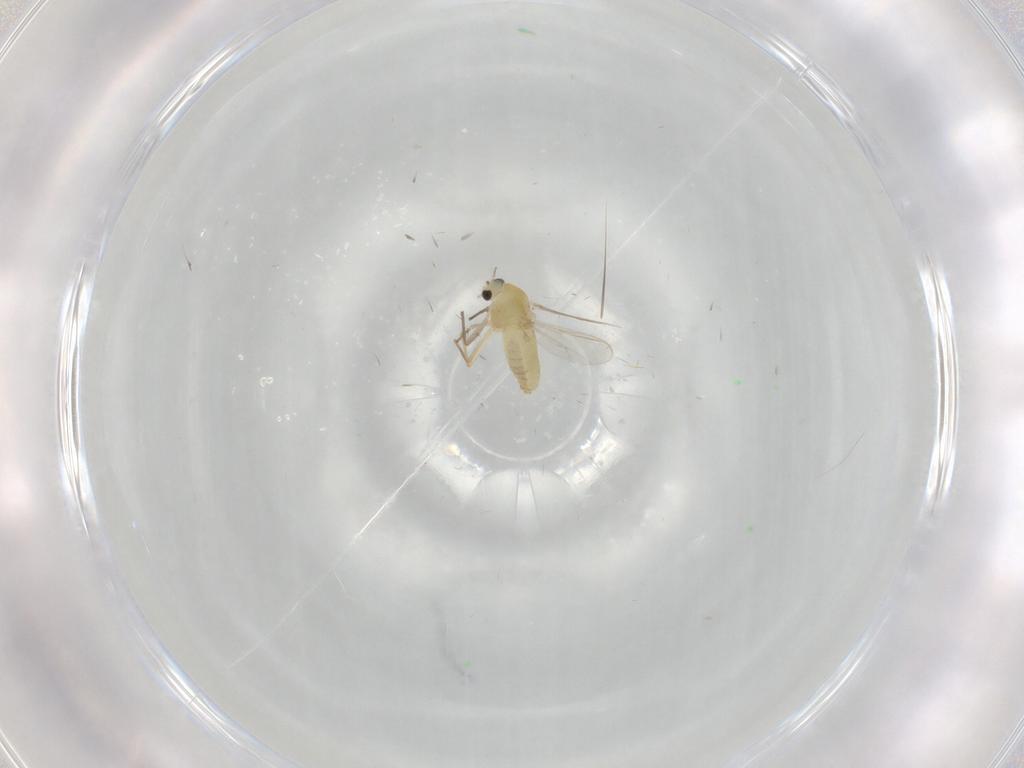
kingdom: Animalia
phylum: Arthropoda
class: Insecta
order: Diptera
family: Chironomidae
